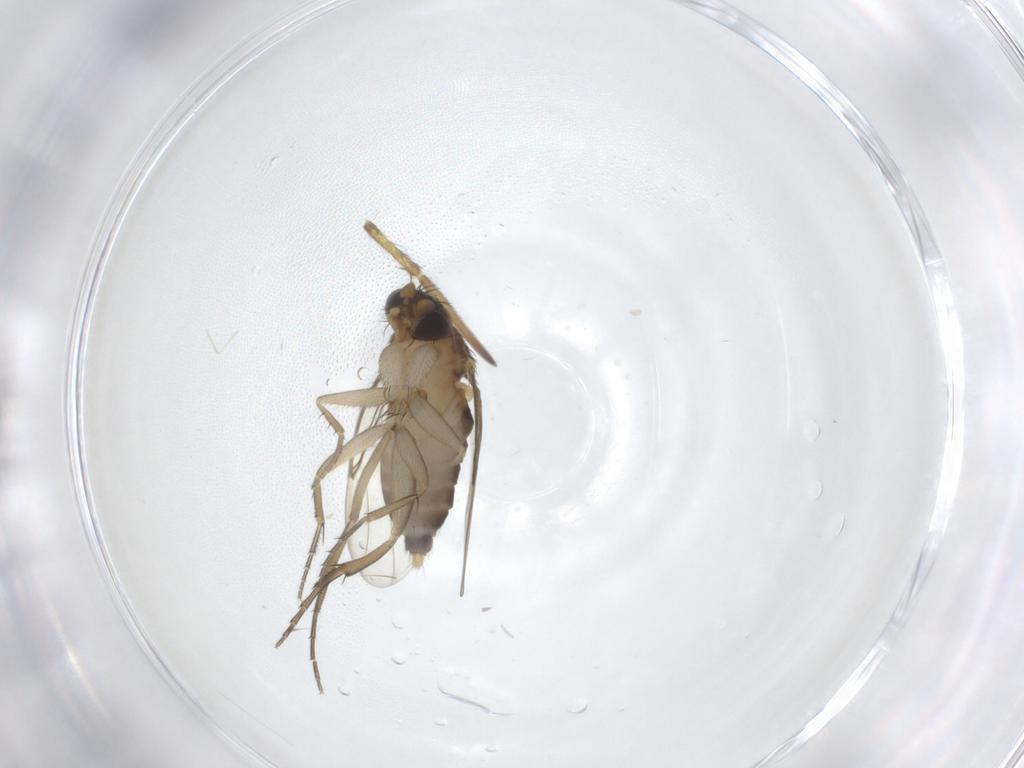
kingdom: Animalia
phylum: Arthropoda
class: Insecta
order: Diptera
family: Phoridae
